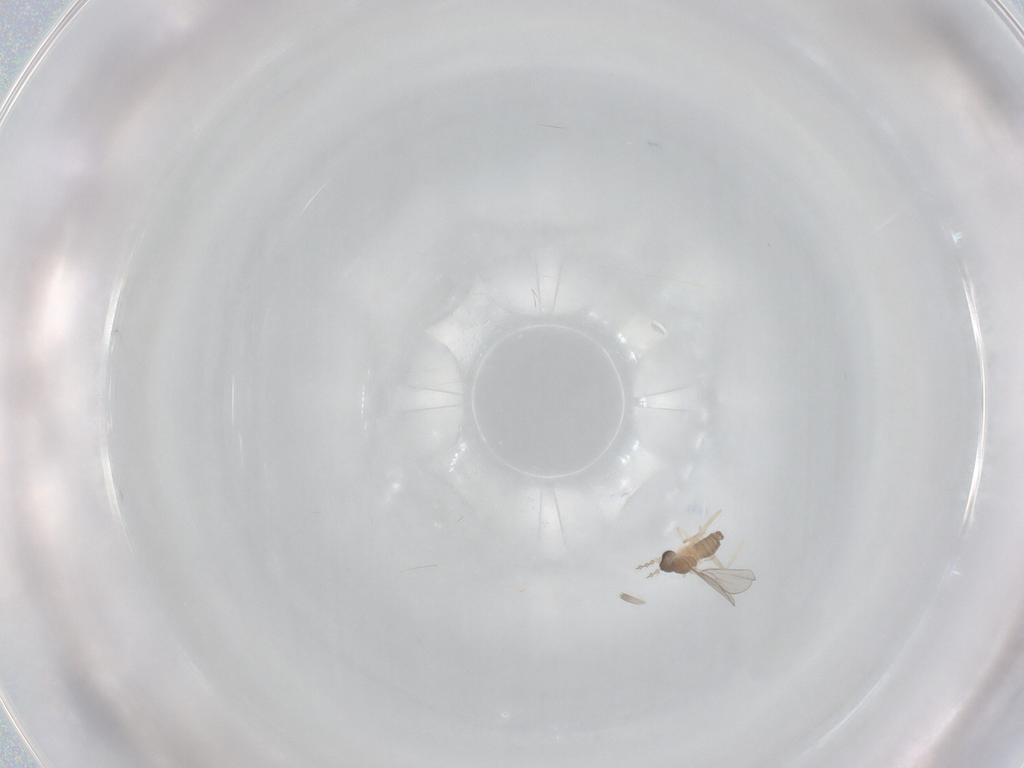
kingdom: Animalia
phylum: Arthropoda
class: Insecta
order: Diptera
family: Cecidomyiidae
